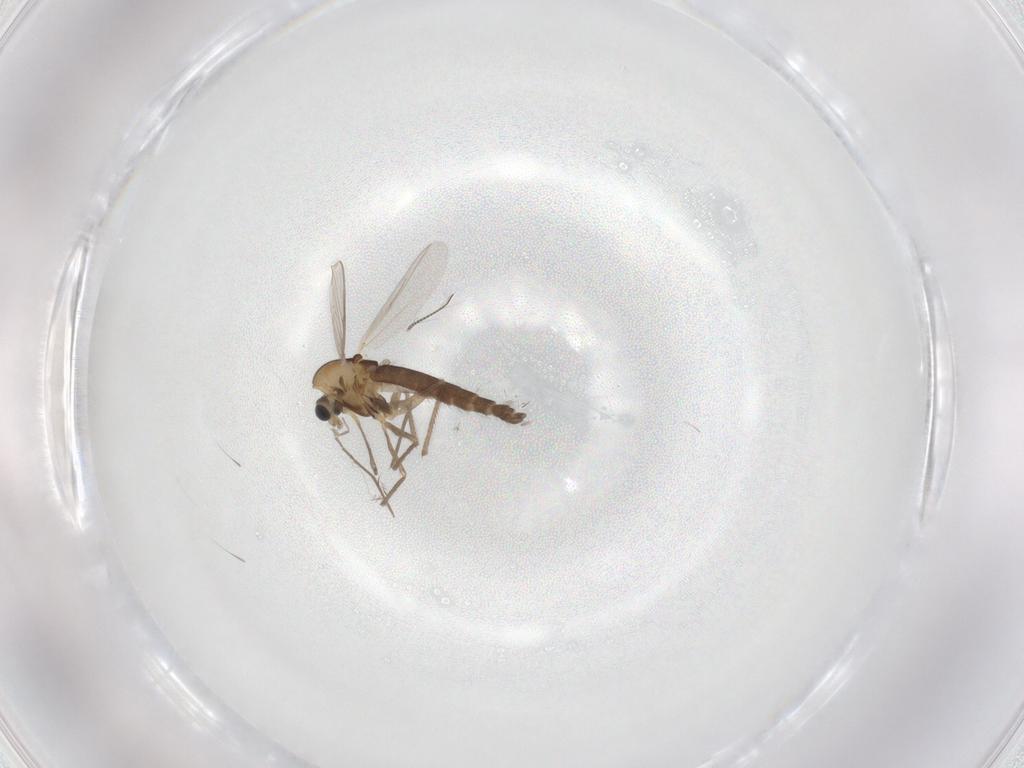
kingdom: Animalia
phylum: Arthropoda
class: Insecta
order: Diptera
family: Chironomidae
